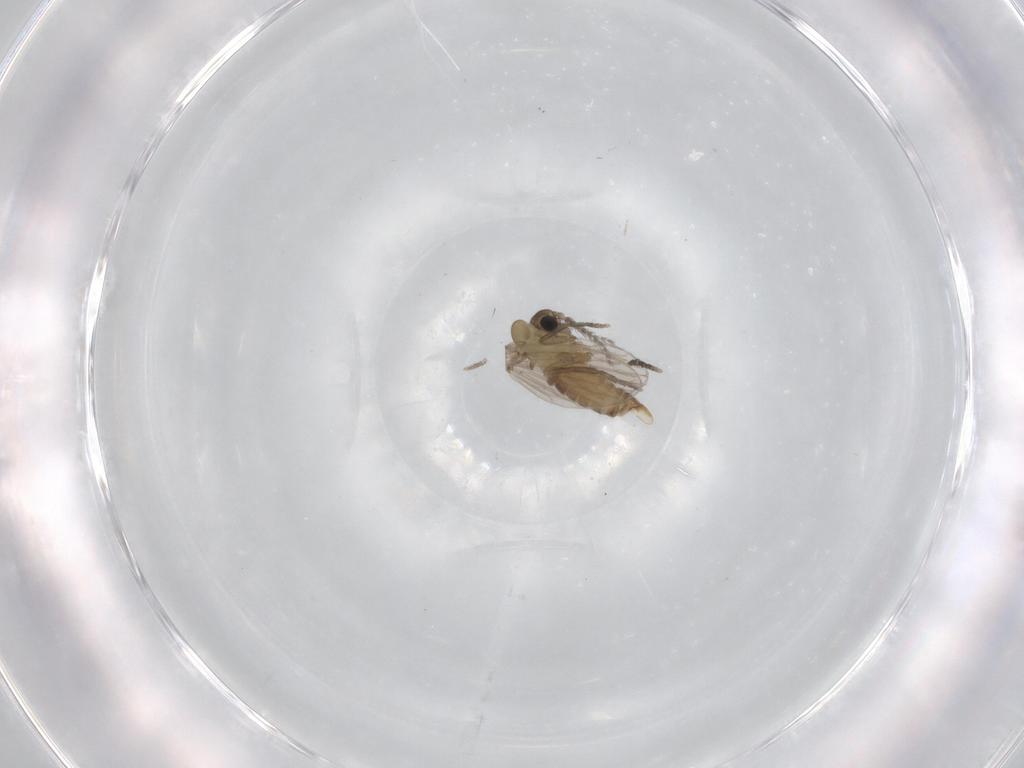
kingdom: Animalia
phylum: Arthropoda
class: Insecta
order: Diptera
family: Psychodidae
